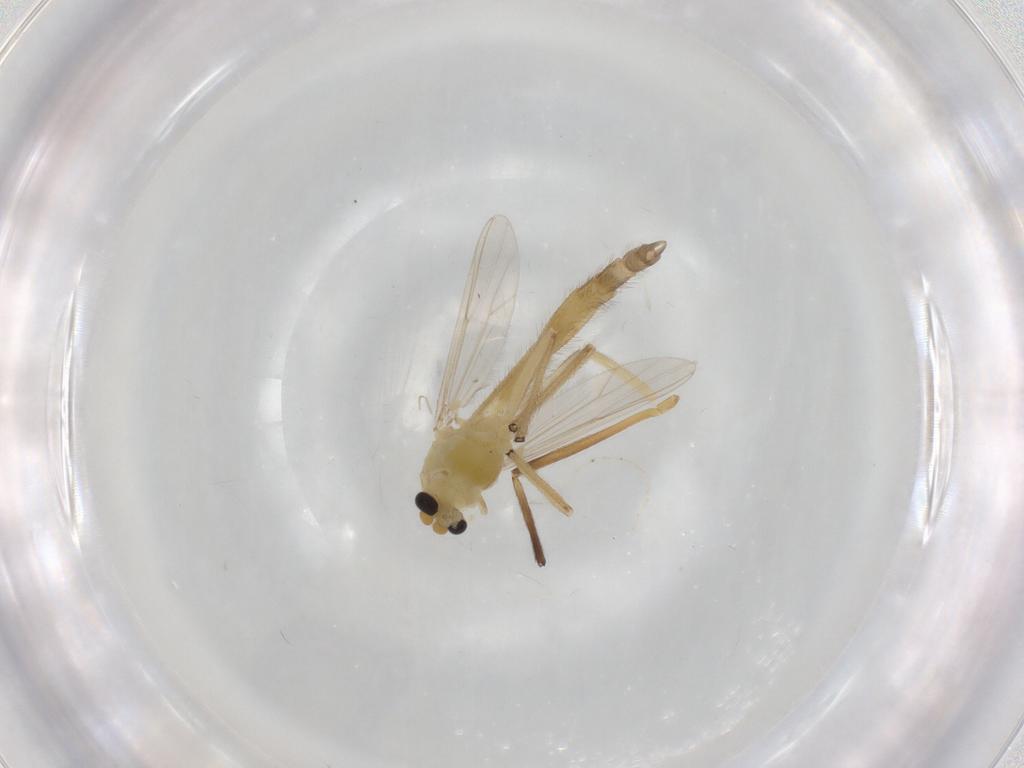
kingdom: Animalia
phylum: Arthropoda
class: Insecta
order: Diptera
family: Chironomidae
